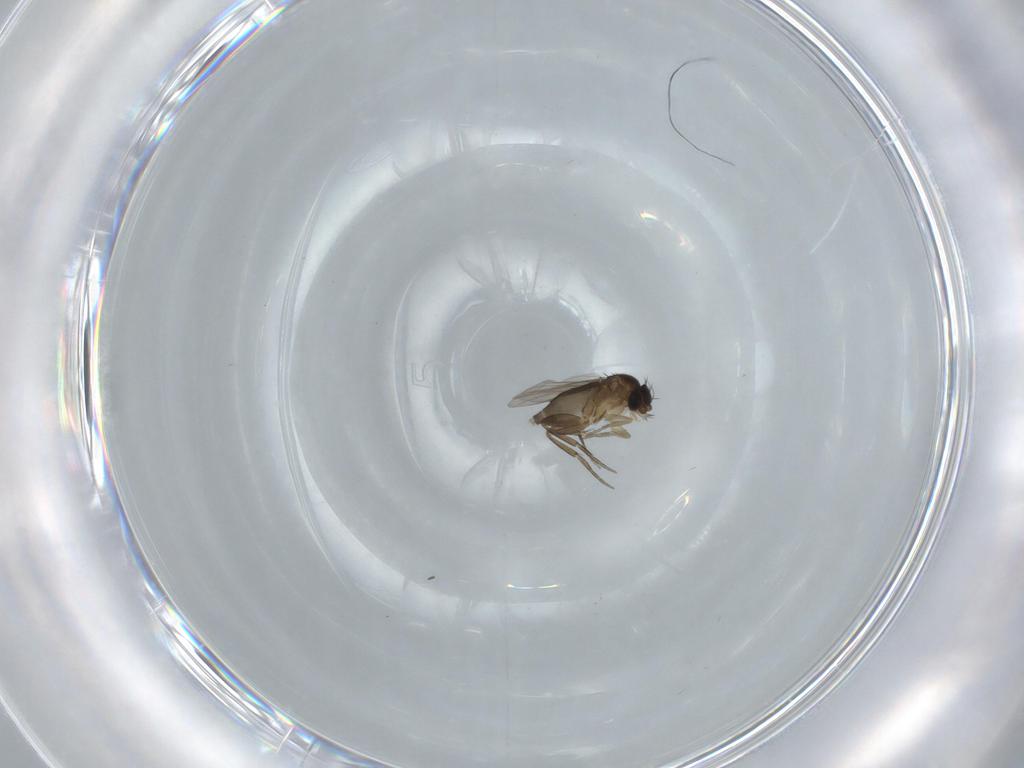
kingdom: Animalia
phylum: Arthropoda
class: Insecta
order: Diptera
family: Phoridae
